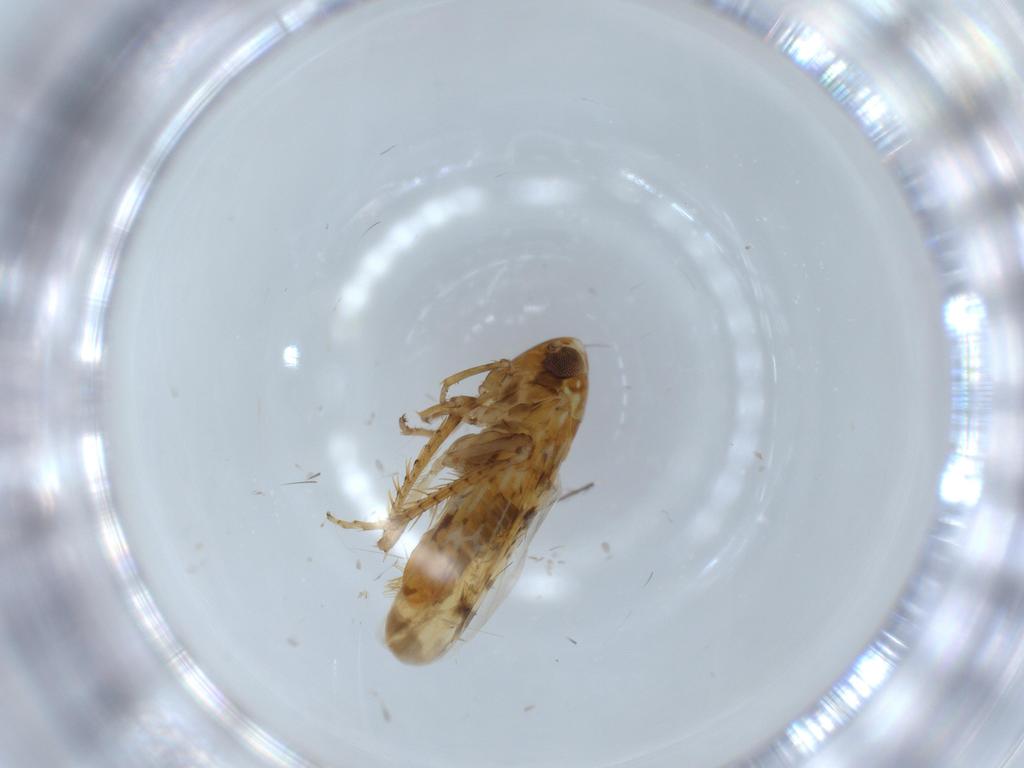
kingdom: Animalia
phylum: Arthropoda
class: Insecta
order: Hemiptera
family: Cicadellidae
